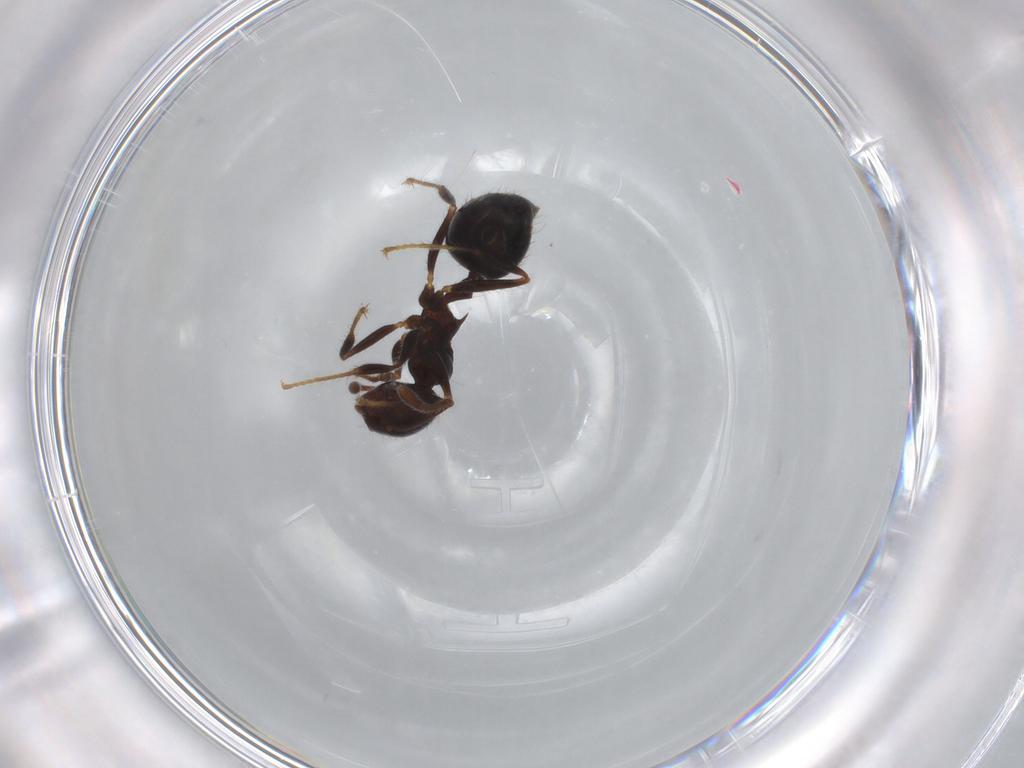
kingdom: Animalia
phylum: Arthropoda
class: Insecta
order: Hymenoptera
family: Formicidae
